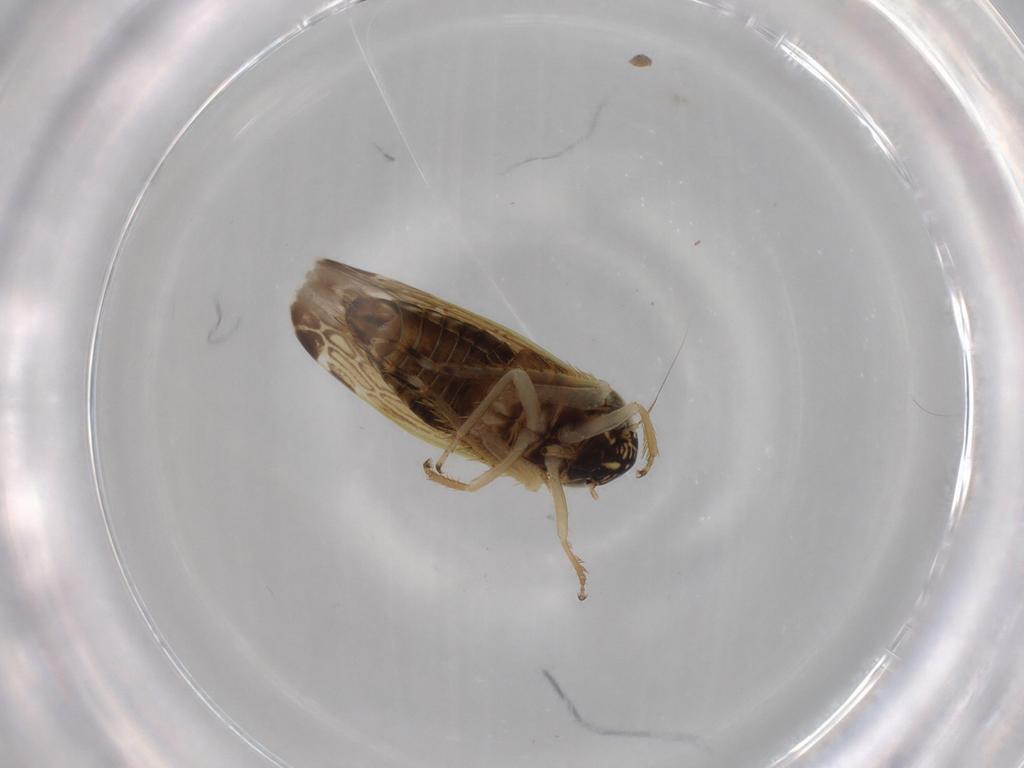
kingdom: Animalia
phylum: Arthropoda
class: Insecta
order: Hemiptera
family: Cicadellidae
